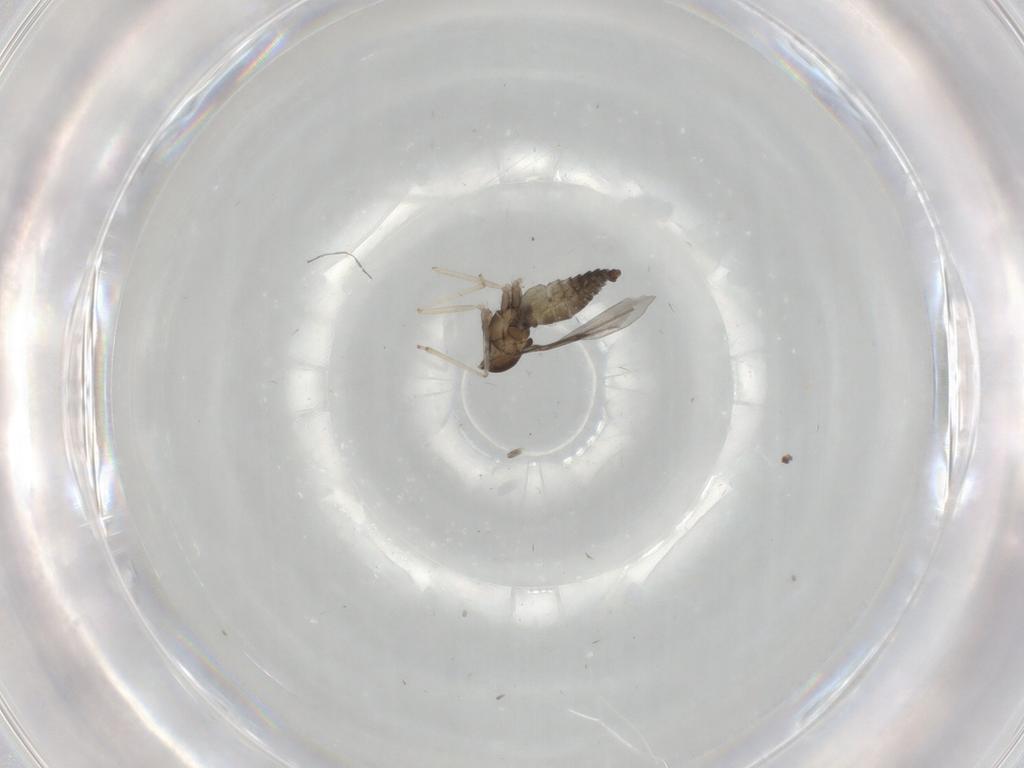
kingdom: Animalia
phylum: Arthropoda
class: Insecta
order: Diptera
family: Cecidomyiidae
